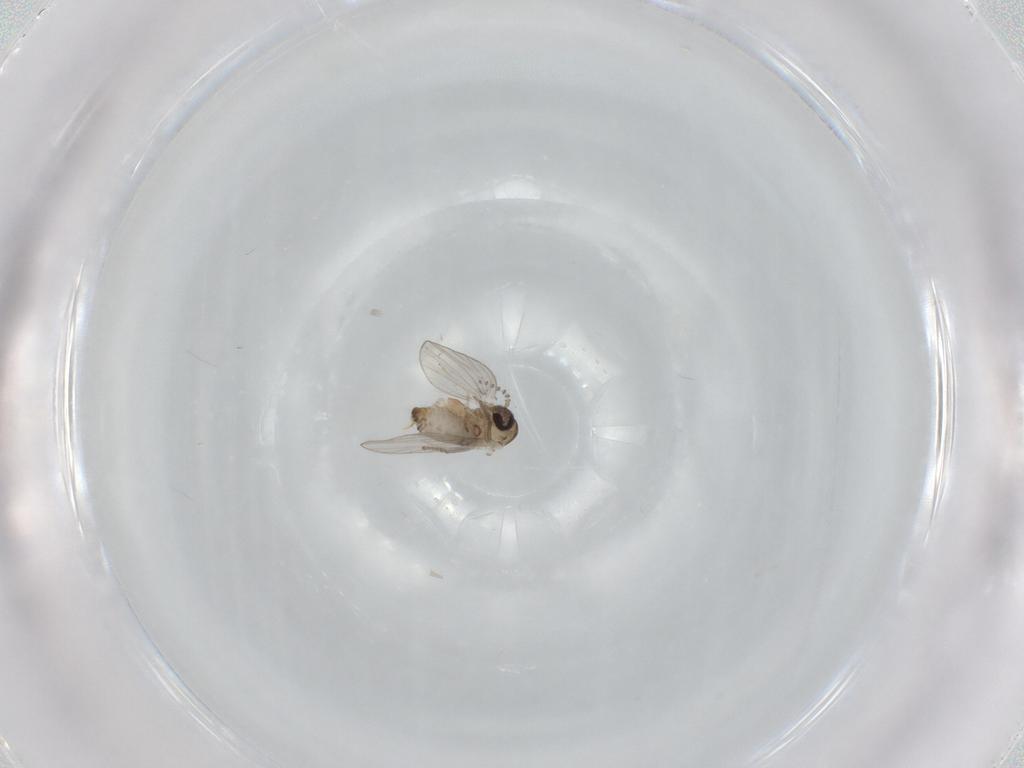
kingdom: Animalia
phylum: Arthropoda
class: Insecta
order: Diptera
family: Psychodidae
